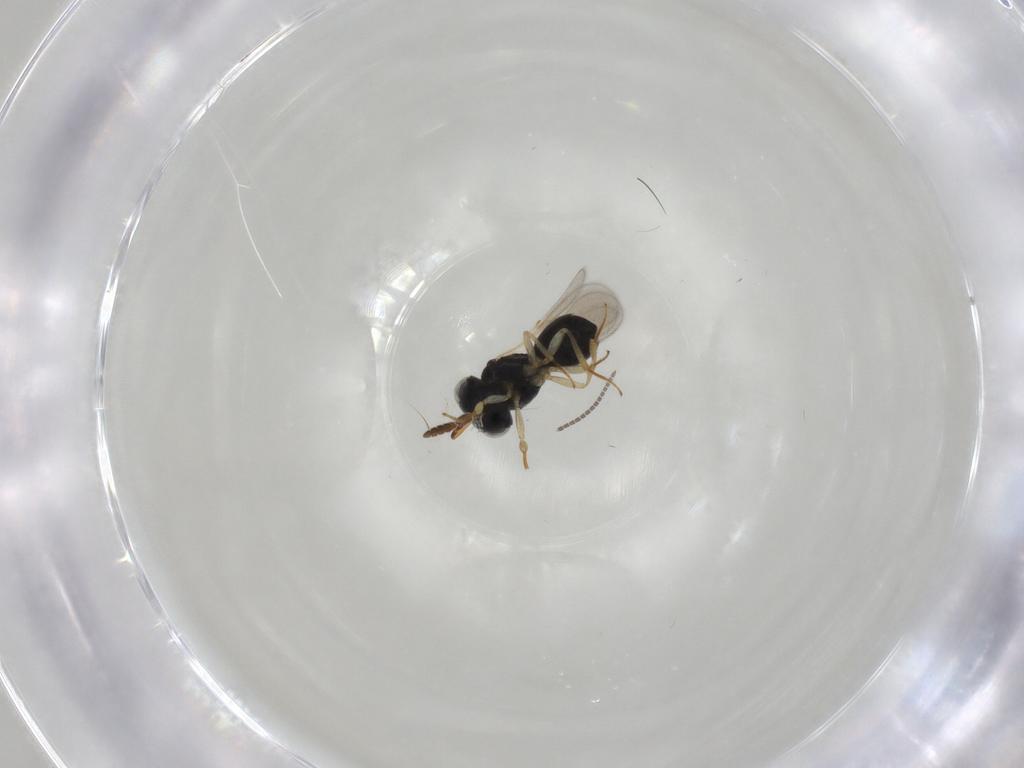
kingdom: Animalia
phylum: Arthropoda
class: Insecta
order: Hymenoptera
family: Scelionidae
